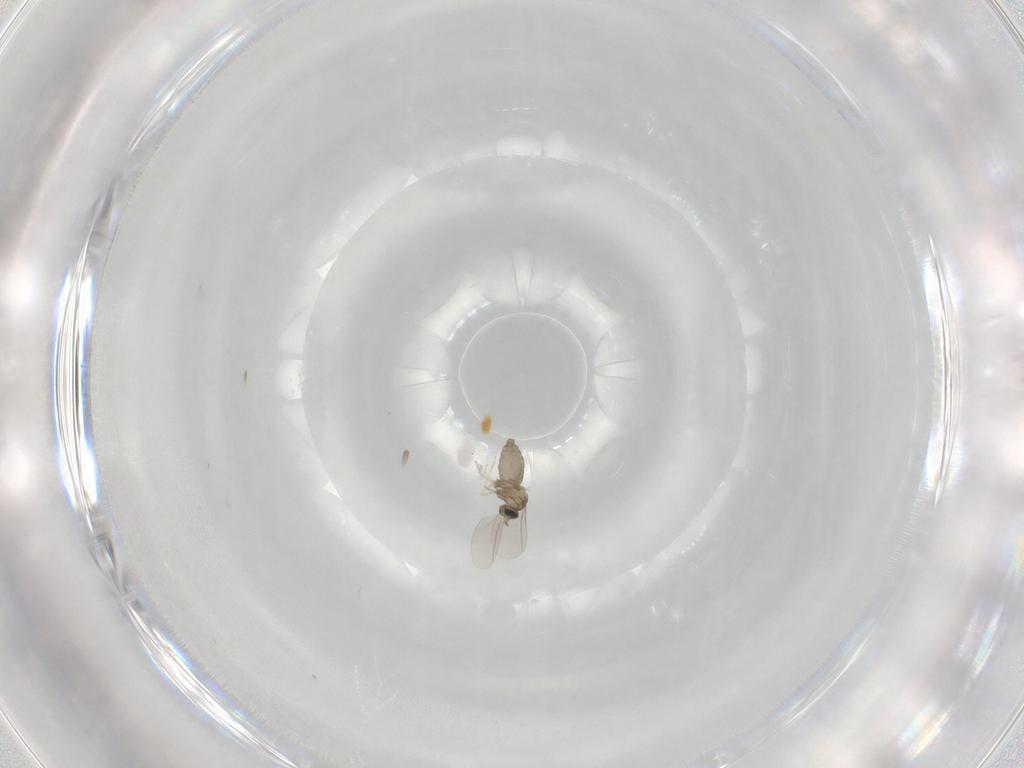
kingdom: Animalia
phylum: Arthropoda
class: Insecta
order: Diptera
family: Cecidomyiidae
